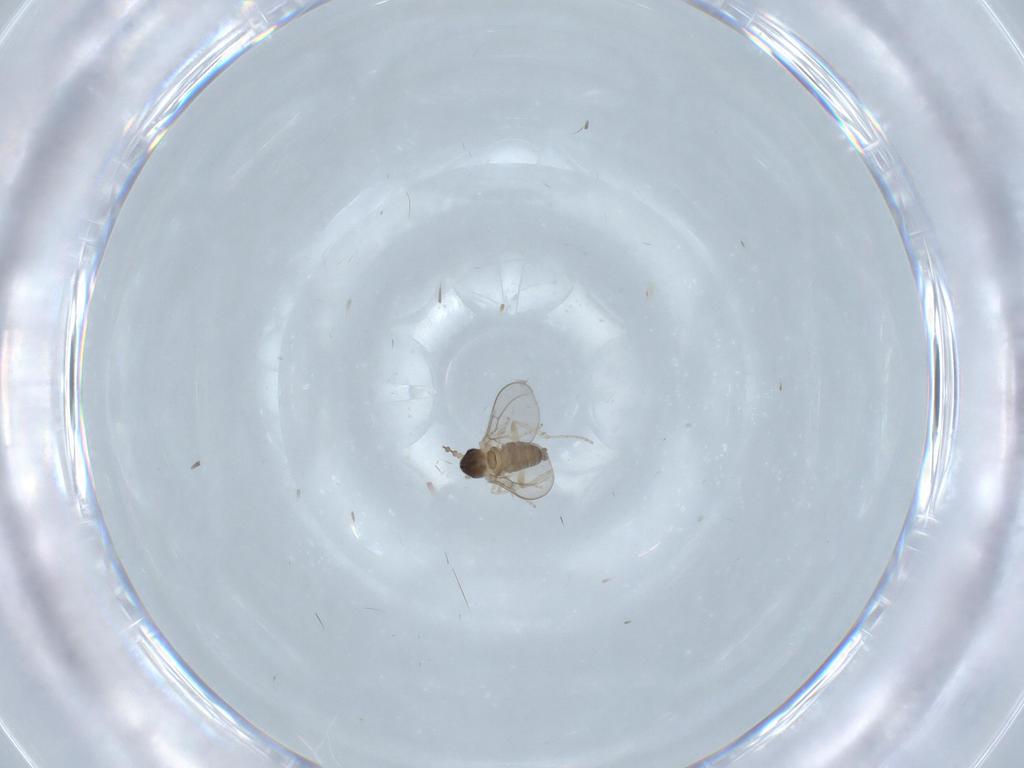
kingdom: Animalia
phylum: Arthropoda
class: Insecta
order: Diptera
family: Cecidomyiidae
